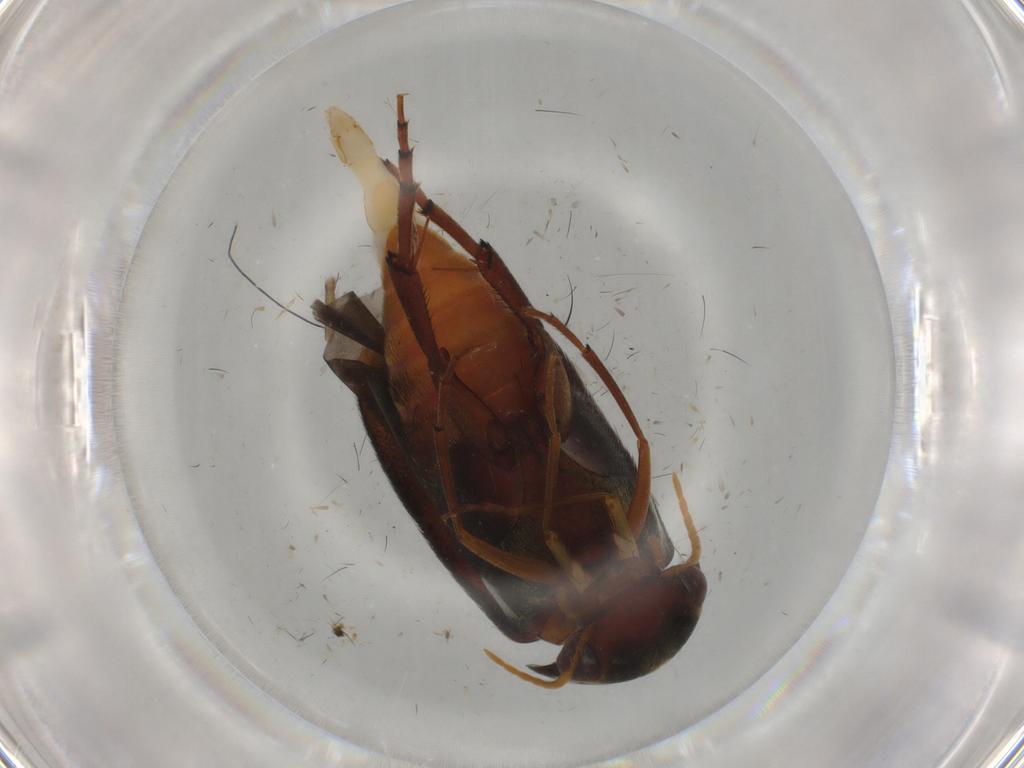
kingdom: Animalia
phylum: Arthropoda
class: Insecta
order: Coleoptera
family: Mordellidae
